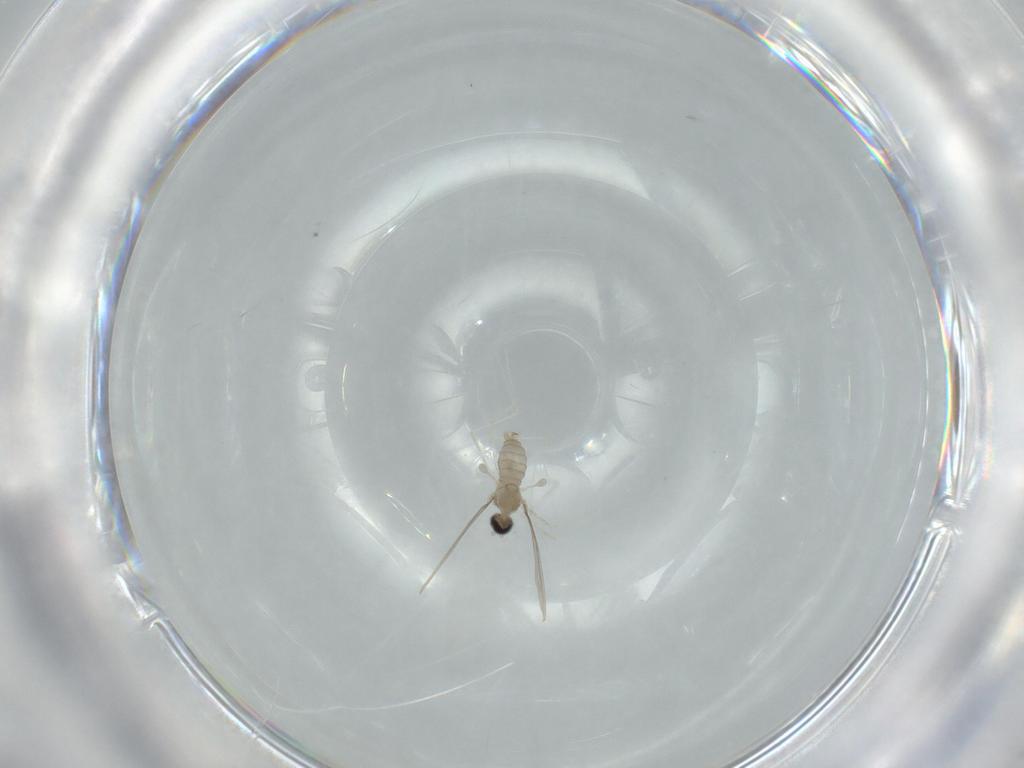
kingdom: Animalia
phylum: Arthropoda
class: Insecta
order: Diptera
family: Cecidomyiidae
